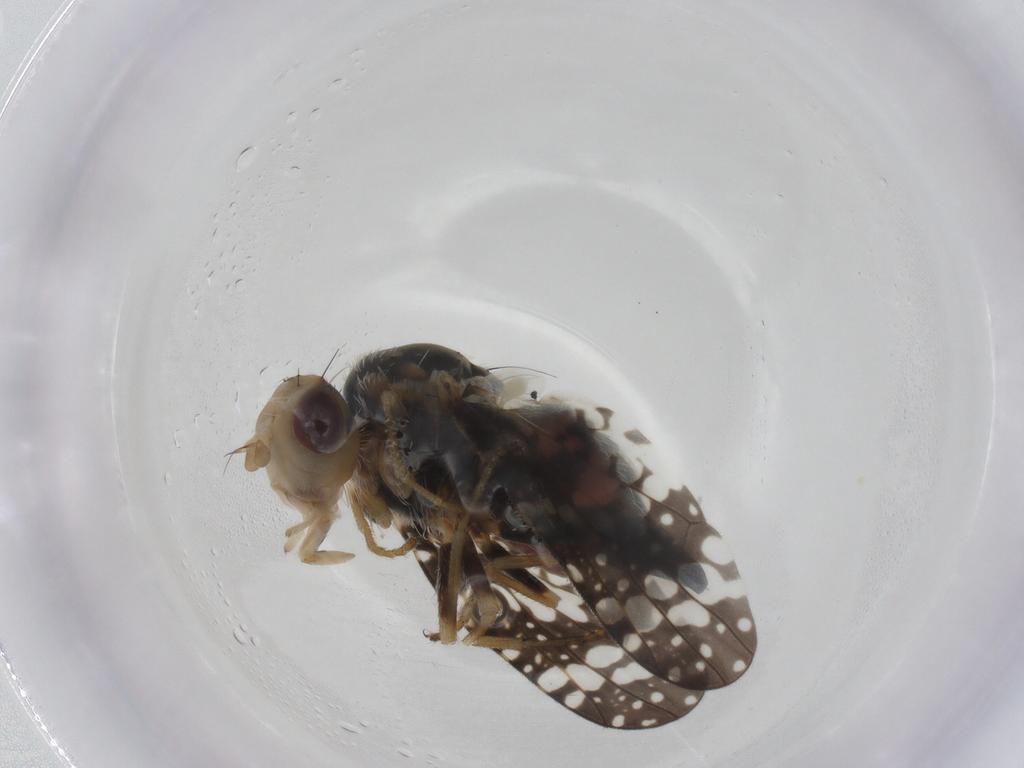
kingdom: Animalia
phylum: Arthropoda
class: Insecta
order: Diptera
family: Tephritidae
